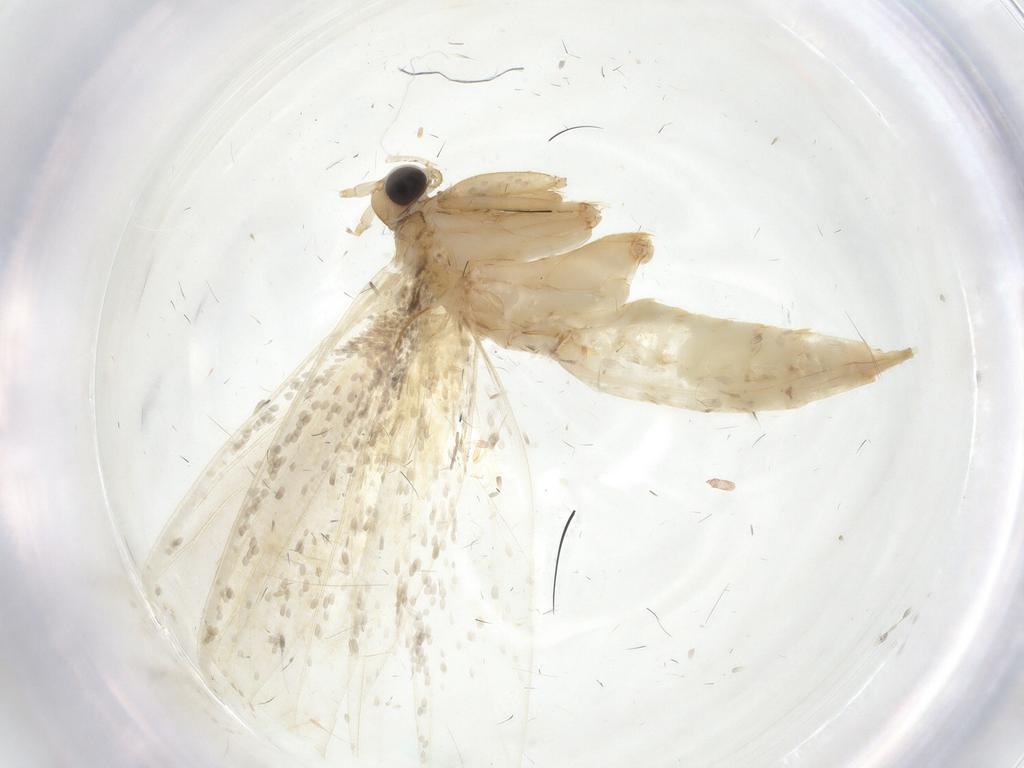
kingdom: Animalia
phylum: Arthropoda
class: Insecta
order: Lepidoptera
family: Tineidae
